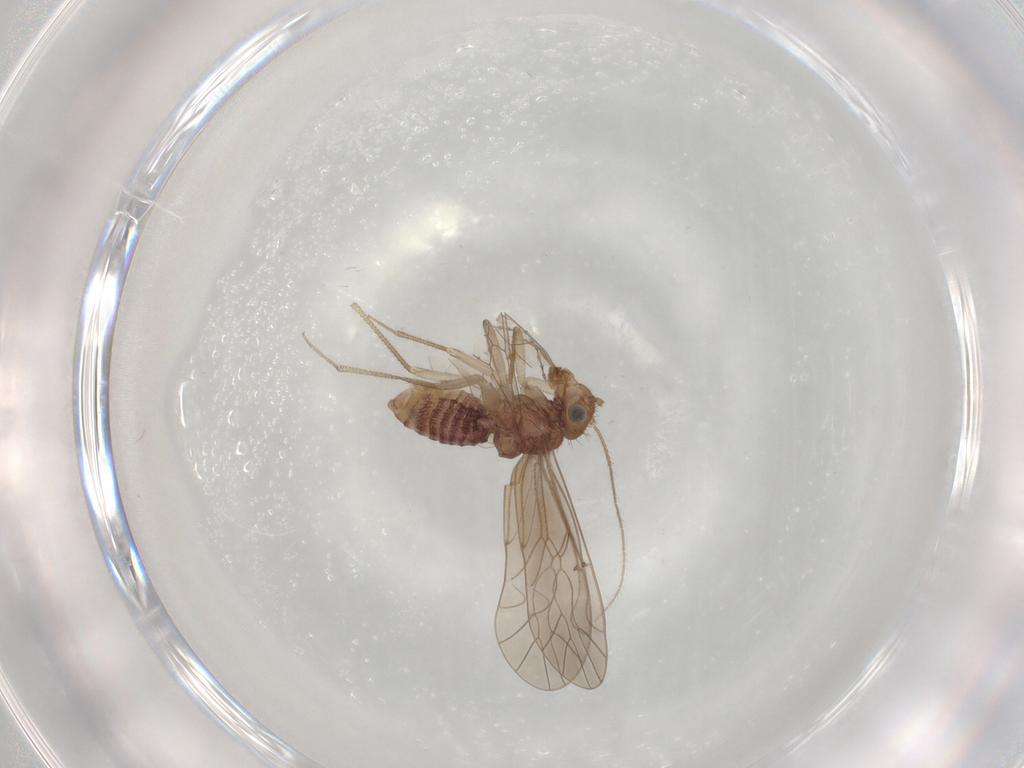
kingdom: Animalia
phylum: Arthropoda
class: Insecta
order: Psocodea
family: Caeciliusidae
